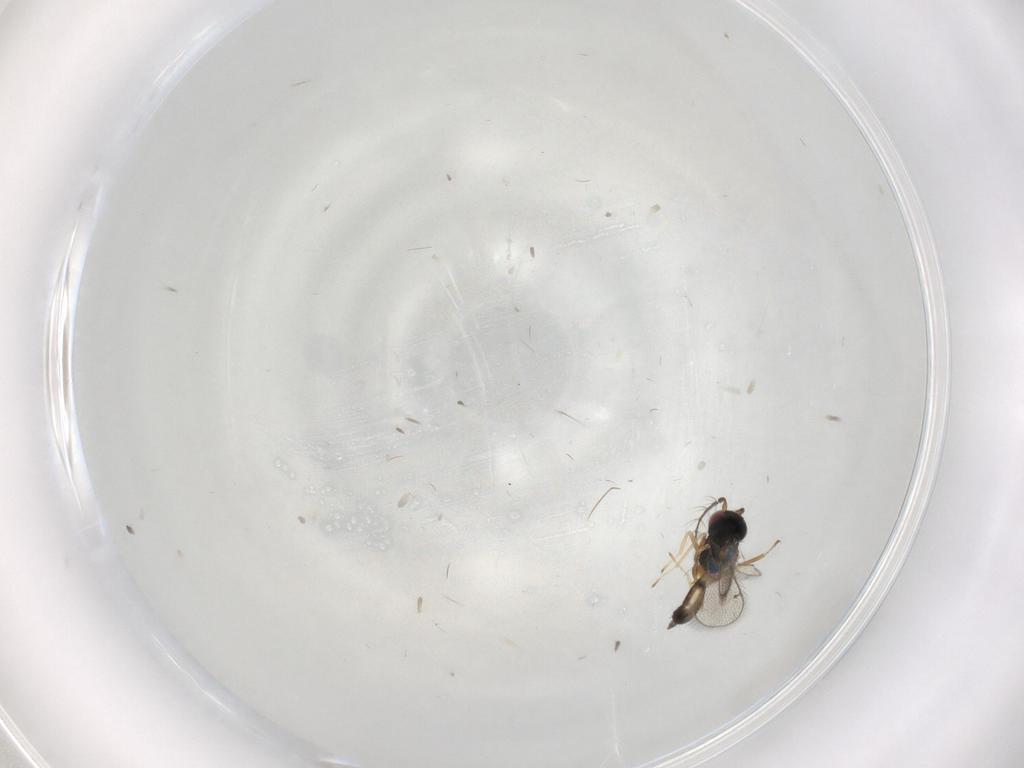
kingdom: Animalia
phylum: Arthropoda
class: Insecta
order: Hymenoptera
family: Eulophidae
